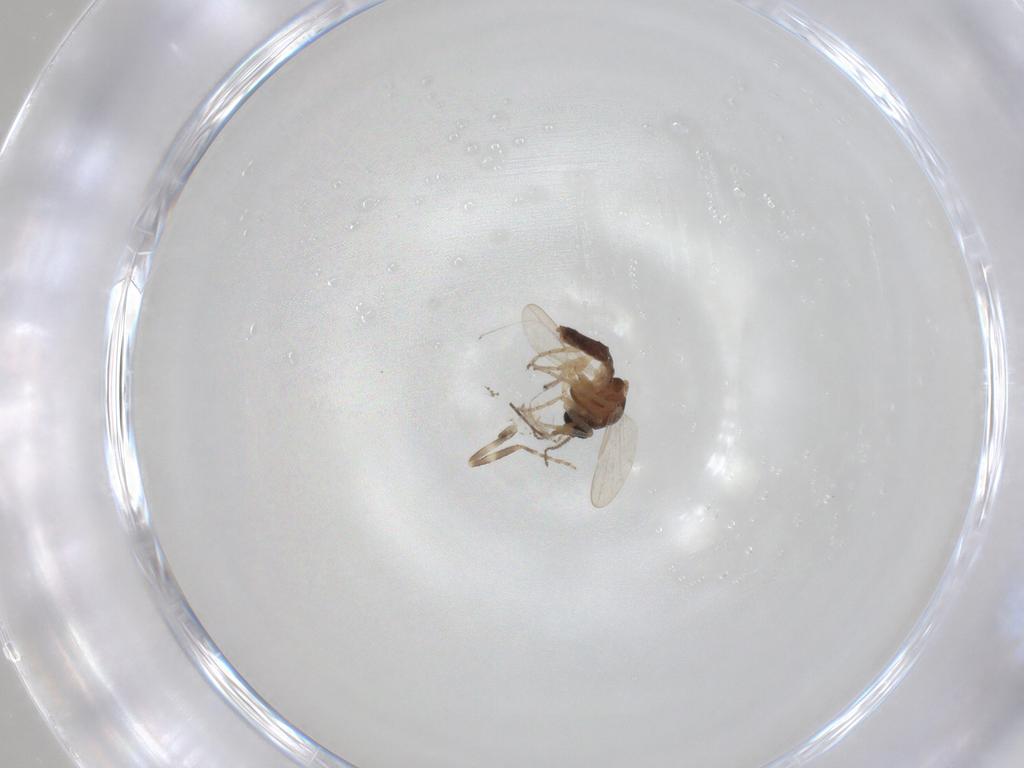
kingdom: Animalia
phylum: Arthropoda
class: Insecta
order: Diptera
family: Ceratopogonidae
